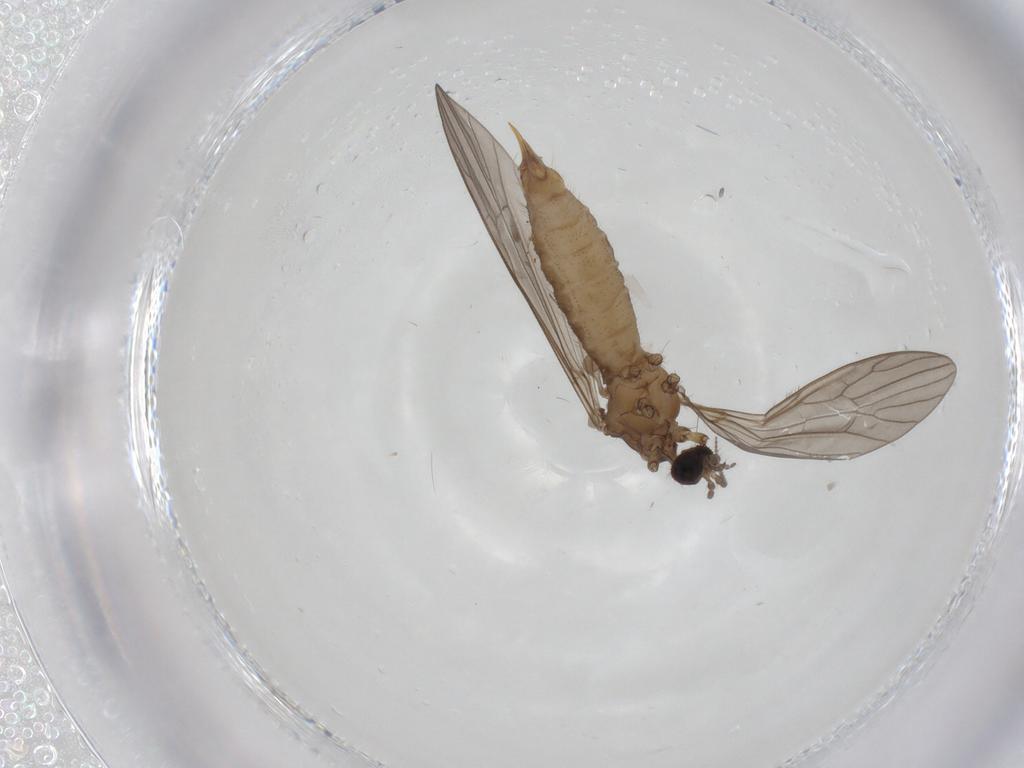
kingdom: Animalia
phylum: Arthropoda
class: Insecta
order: Diptera
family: Limoniidae
